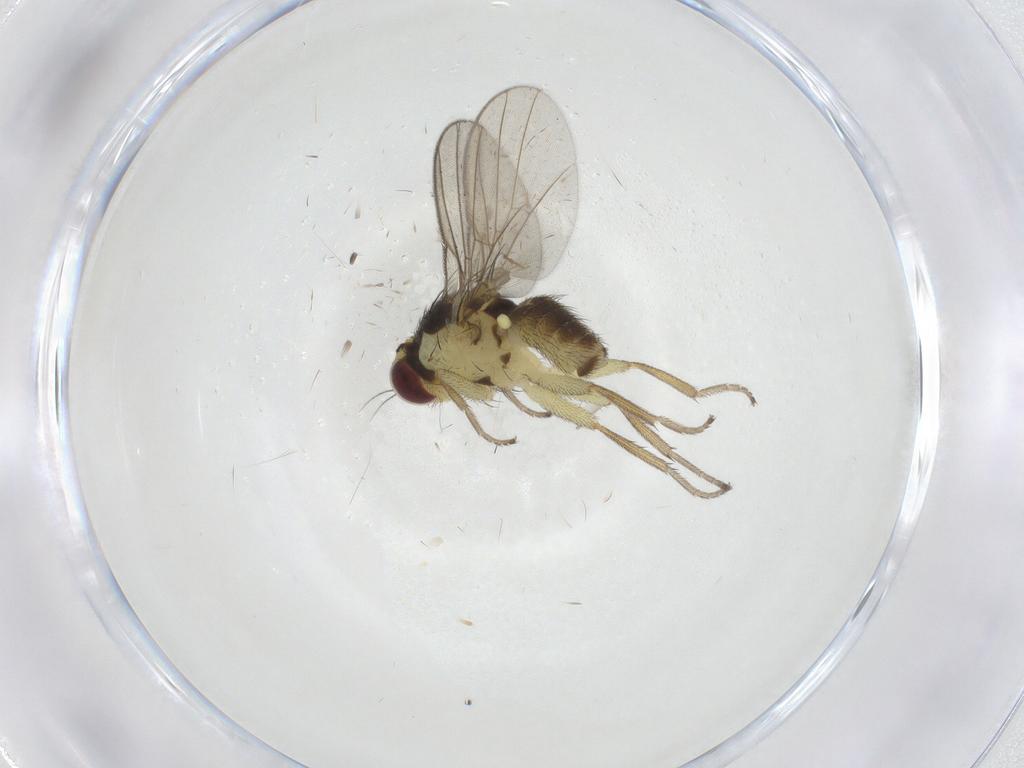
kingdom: Animalia
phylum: Arthropoda
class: Insecta
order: Diptera
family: Agromyzidae
